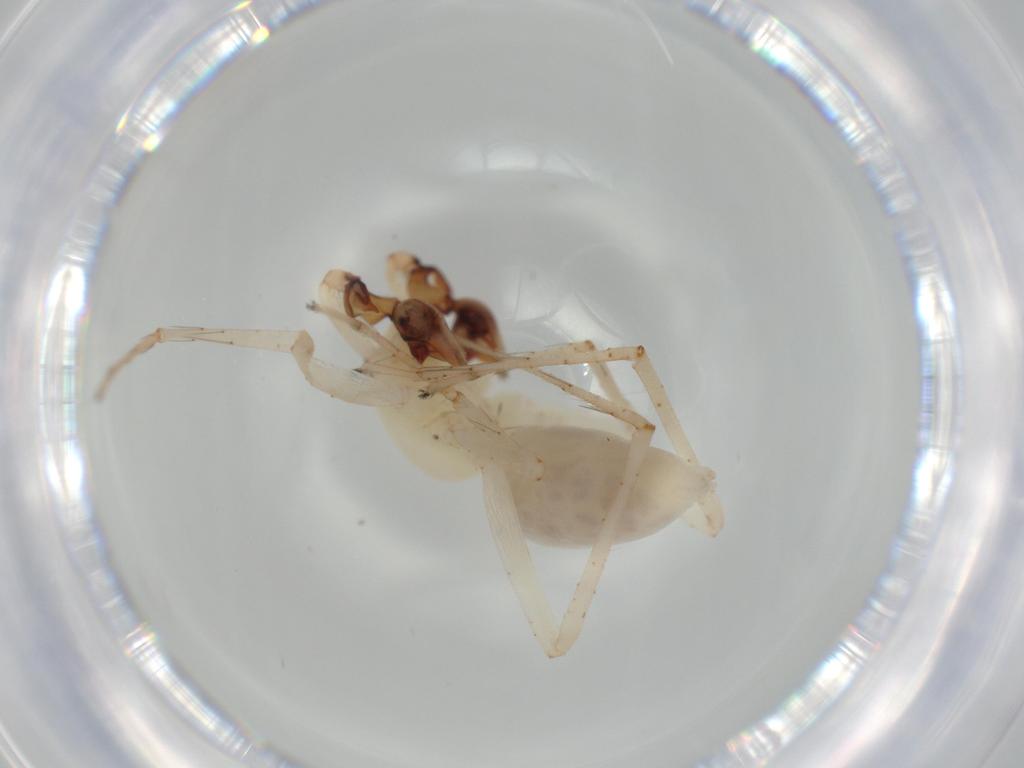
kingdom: Animalia
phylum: Arthropoda
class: Arachnida
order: Araneae
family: Anyphaenidae
